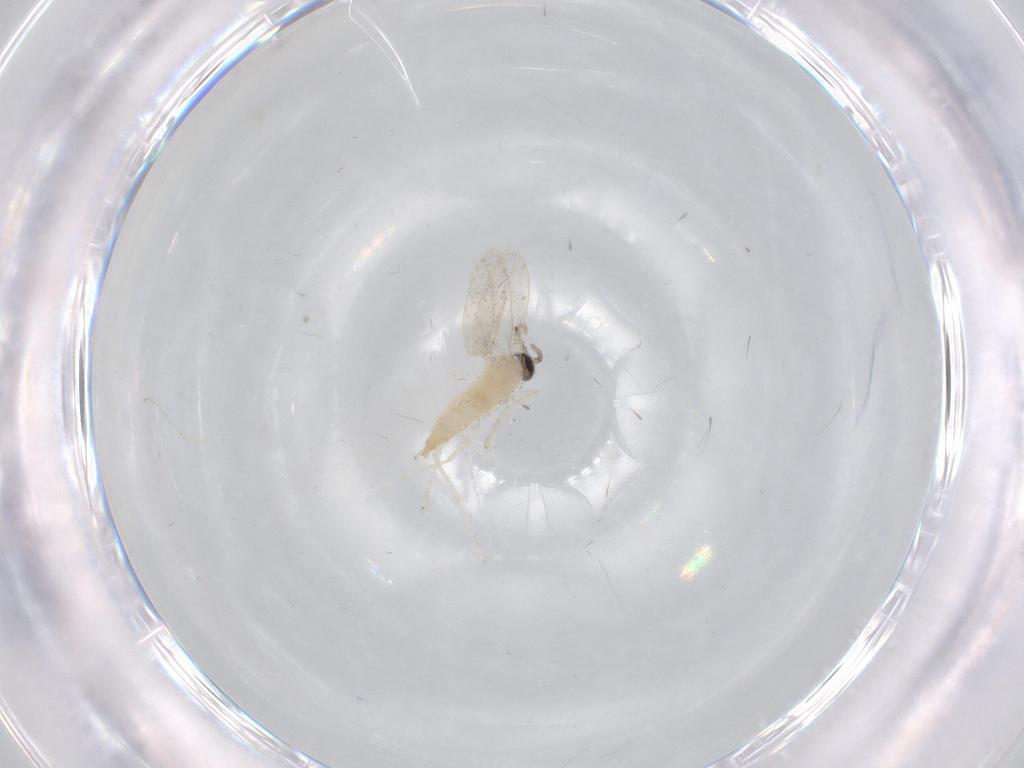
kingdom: Animalia
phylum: Arthropoda
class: Insecta
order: Diptera
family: Cecidomyiidae
